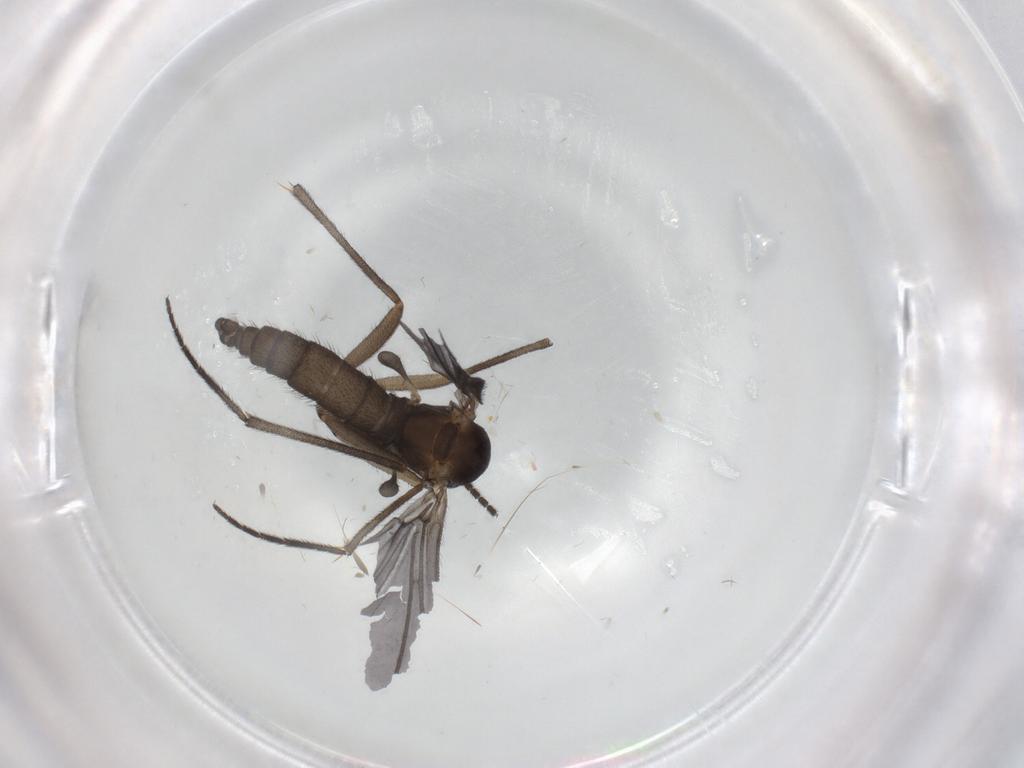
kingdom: Animalia
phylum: Arthropoda
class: Insecta
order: Diptera
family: Sciaridae
